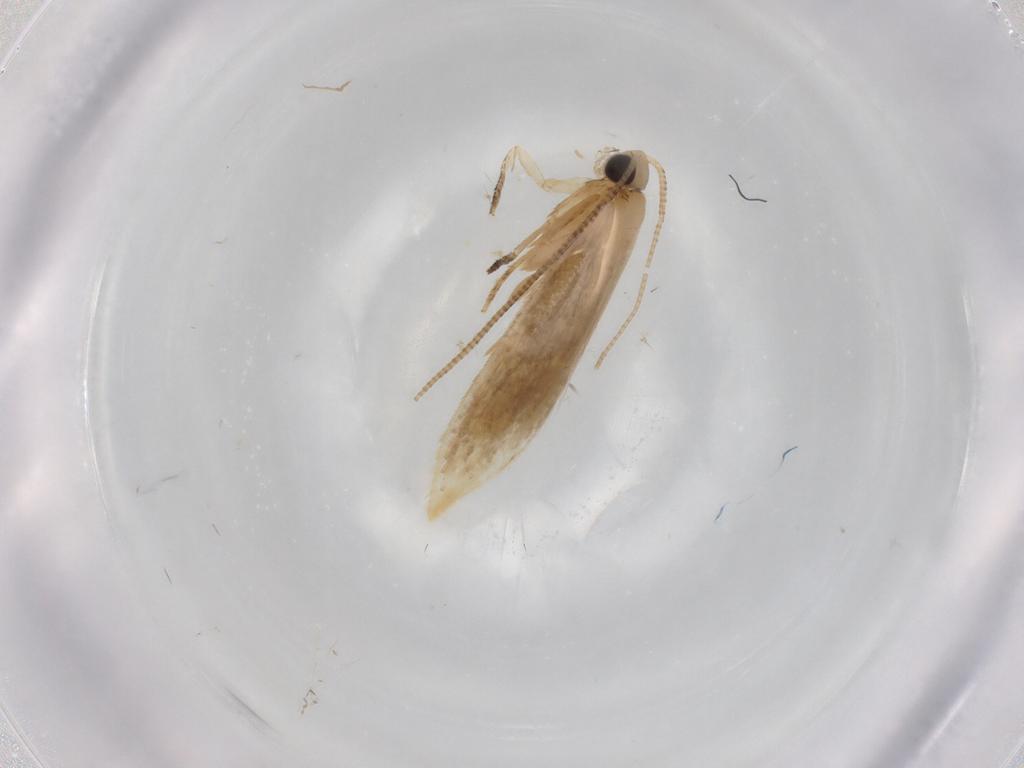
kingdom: Animalia
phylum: Arthropoda
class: Insecta
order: Lepidoptera
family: Tineidae
